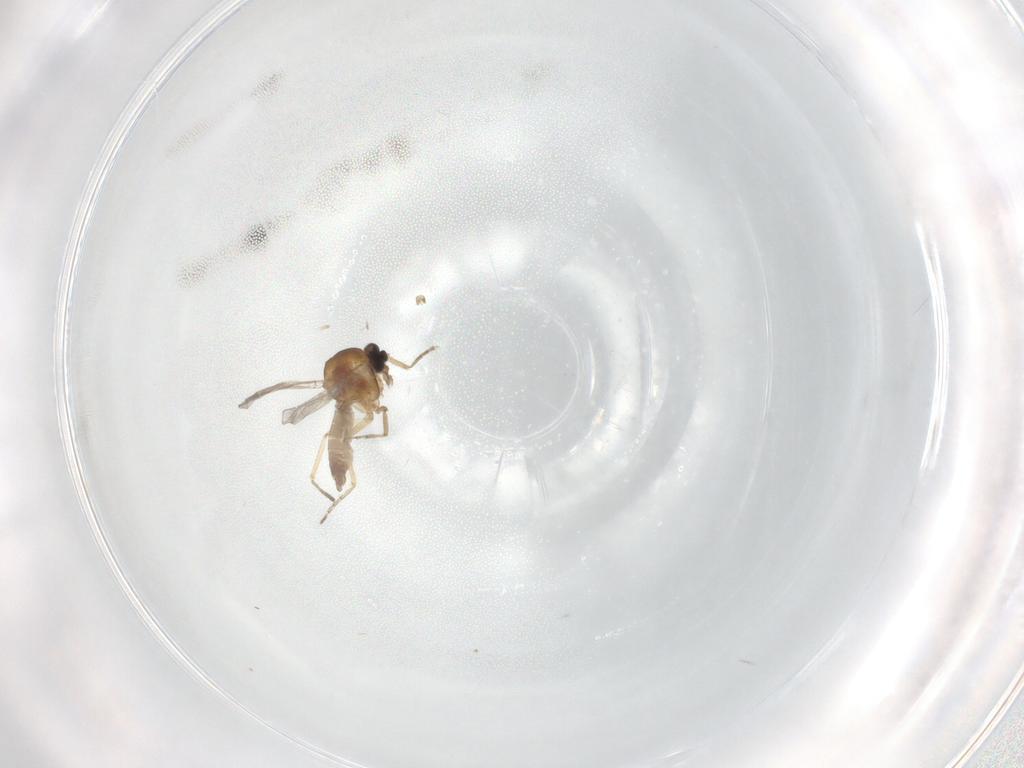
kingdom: Animalia
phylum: Arthropoda
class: Insecta
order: Diptera
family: Chironomidae
